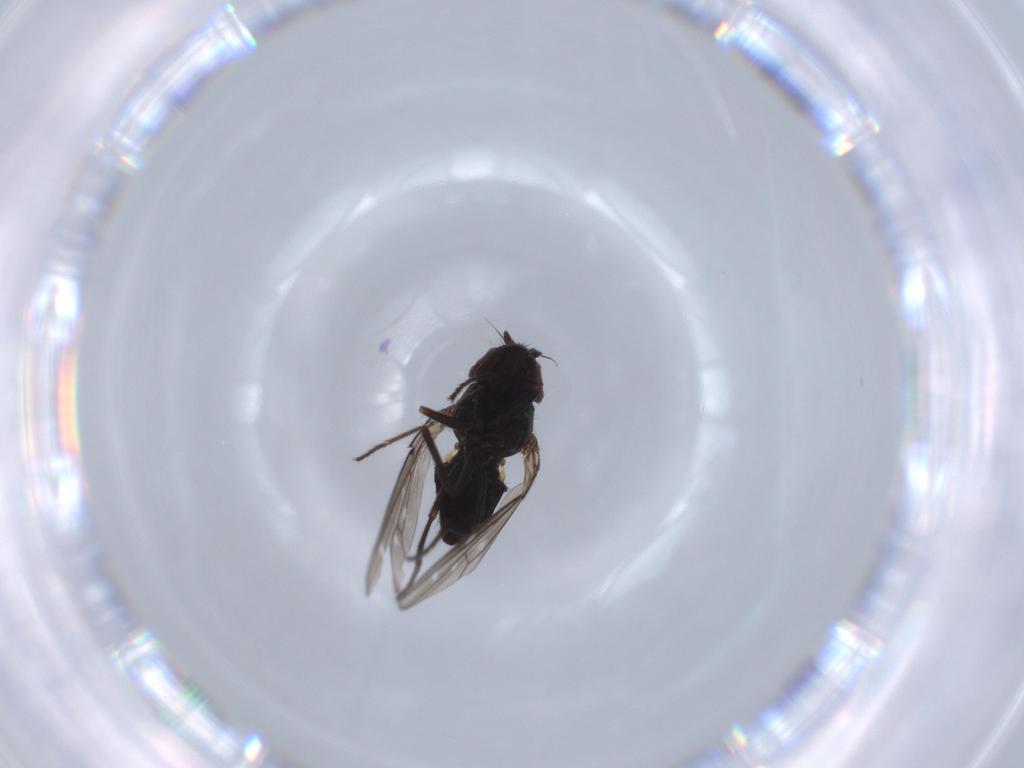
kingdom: Animalia
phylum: Arthropoda
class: Insecta
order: Diptera
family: Ephydridae
